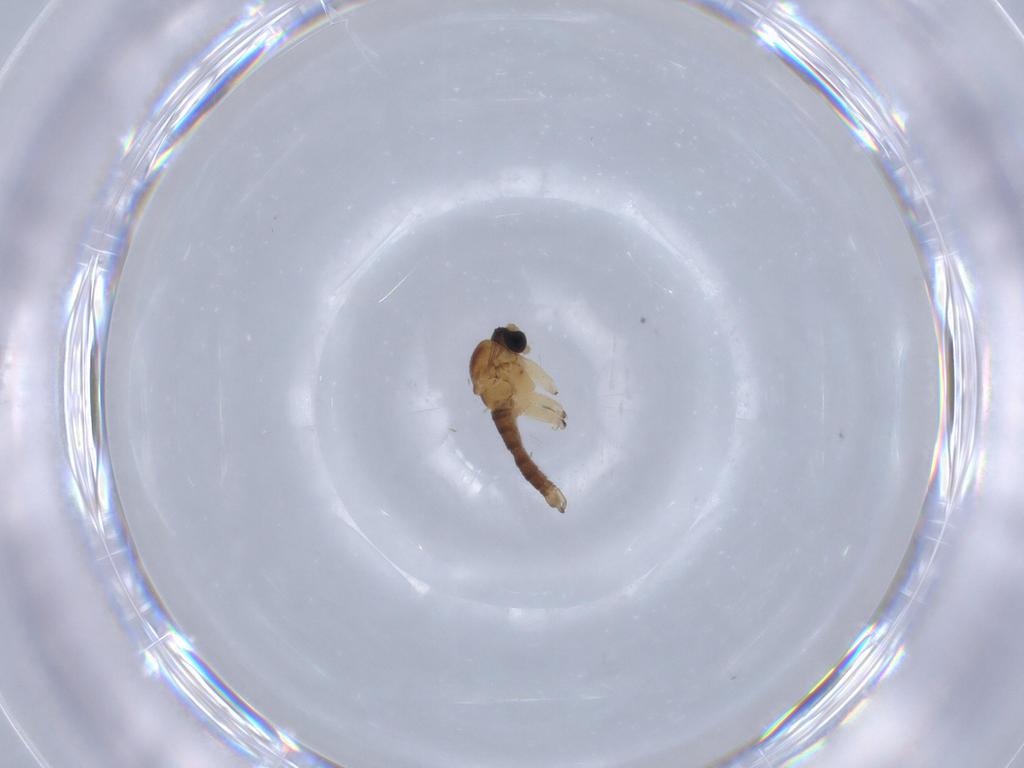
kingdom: Animalia
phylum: Arthropoda
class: Insecta
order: Diptera
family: Sciaridae
